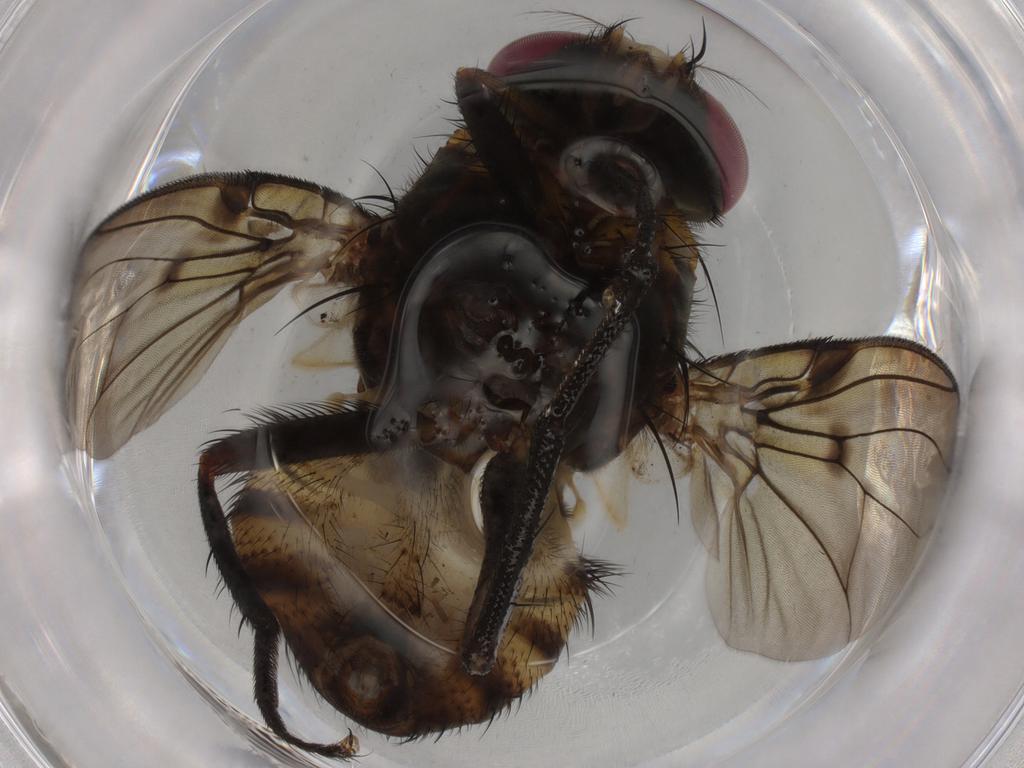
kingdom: Animalia
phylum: Arthropoda
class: Insecta
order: Diptera
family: Cecidomyiidae
